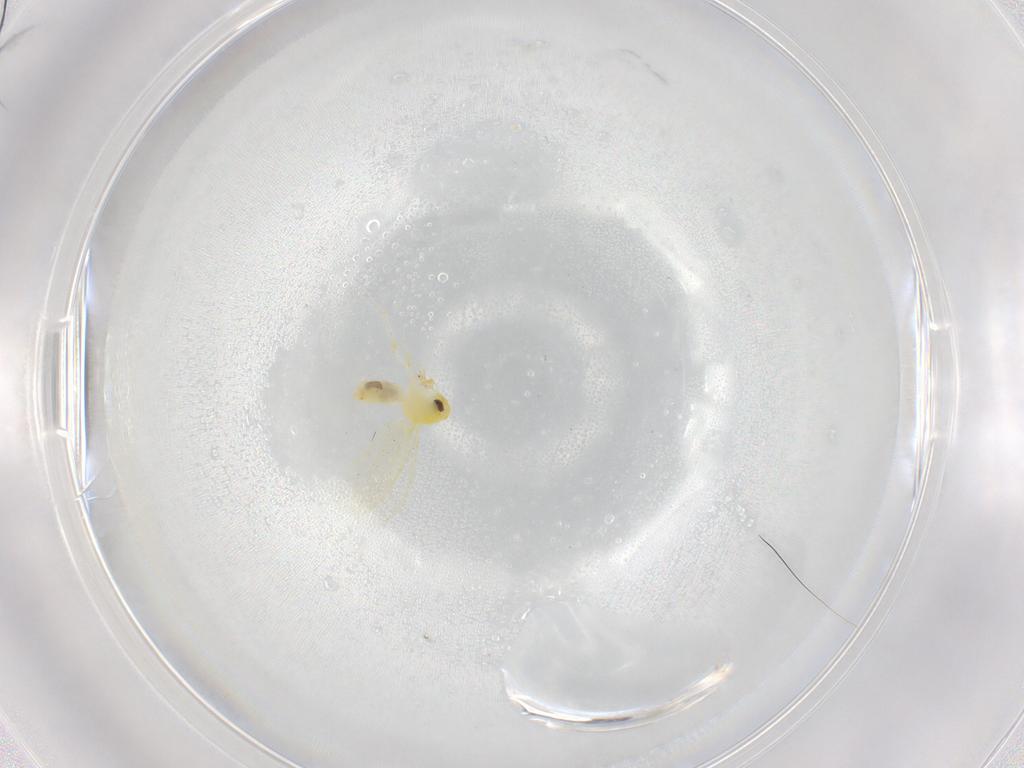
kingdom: Animalia
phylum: Arthropoda
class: Insecta
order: Hemiptera
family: Aleyrodidae
